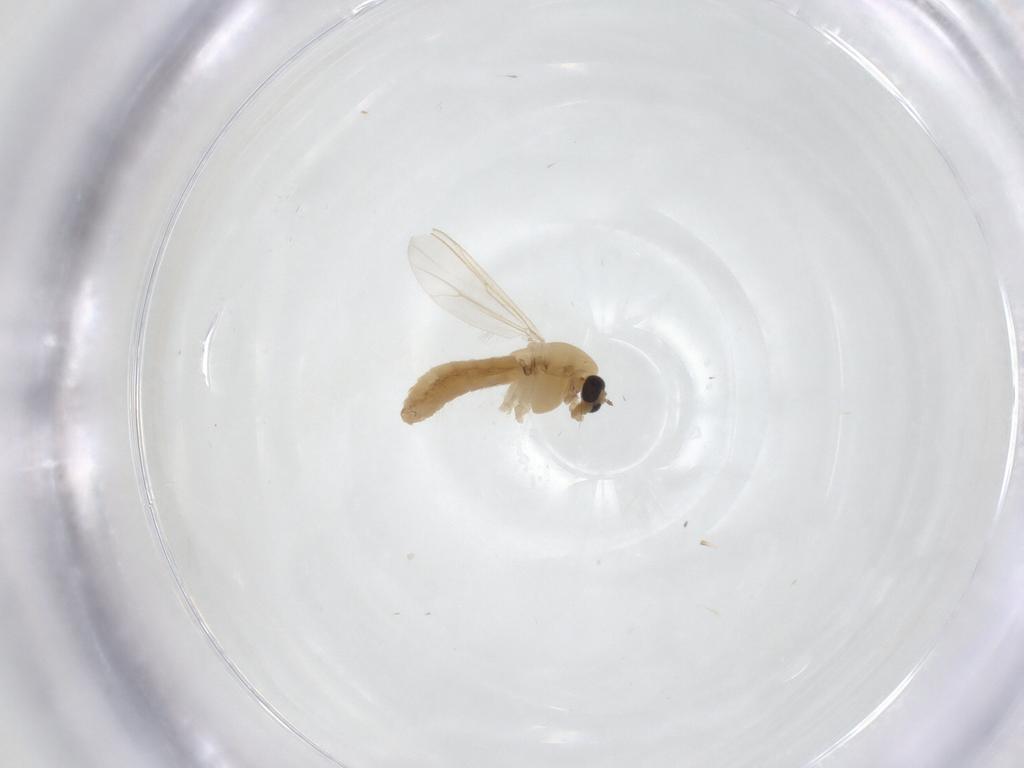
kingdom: Animalia
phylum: Arthropoda
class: Insecta
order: Diptera
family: Chironomidae
